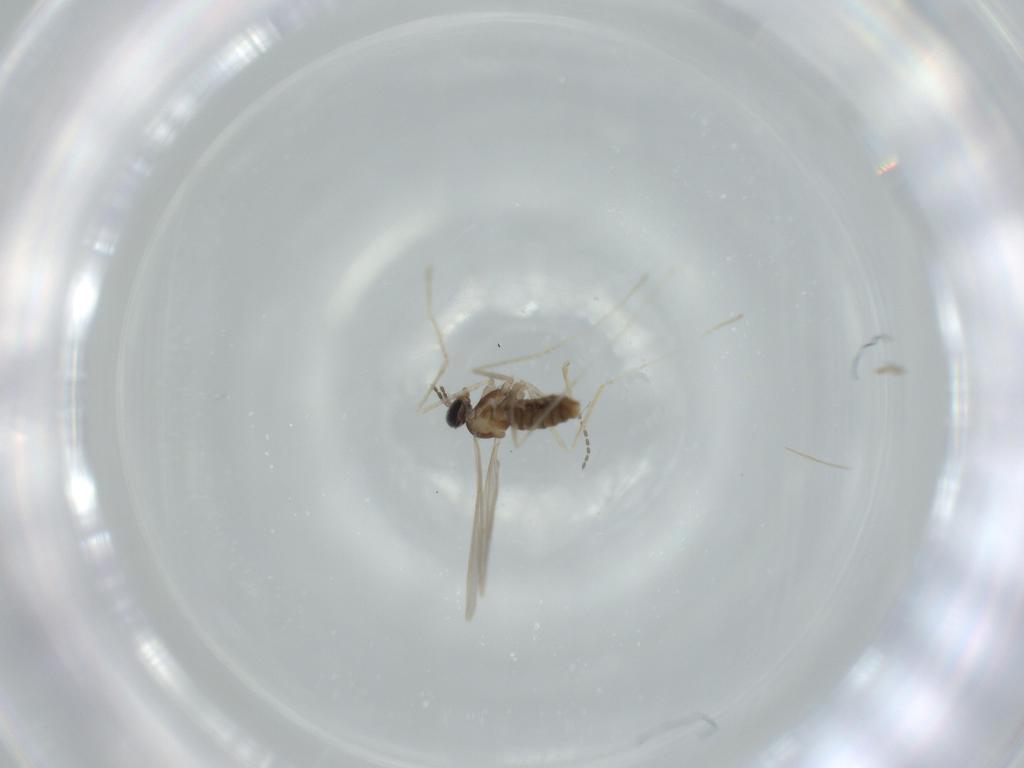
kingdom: Animalia
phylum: Arthropoda
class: Insecta
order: Diptera
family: Cecidomyiidae
